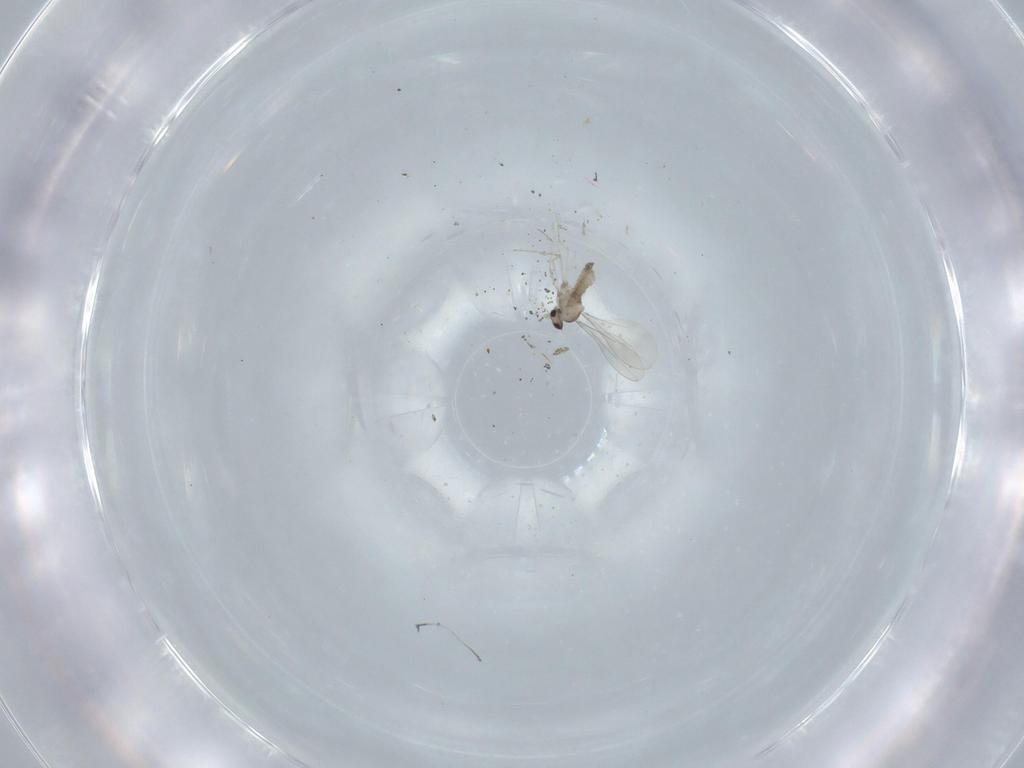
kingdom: Animalia
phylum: Arthropoda
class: Insecta
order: Diptera
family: Cecidomyiidae
